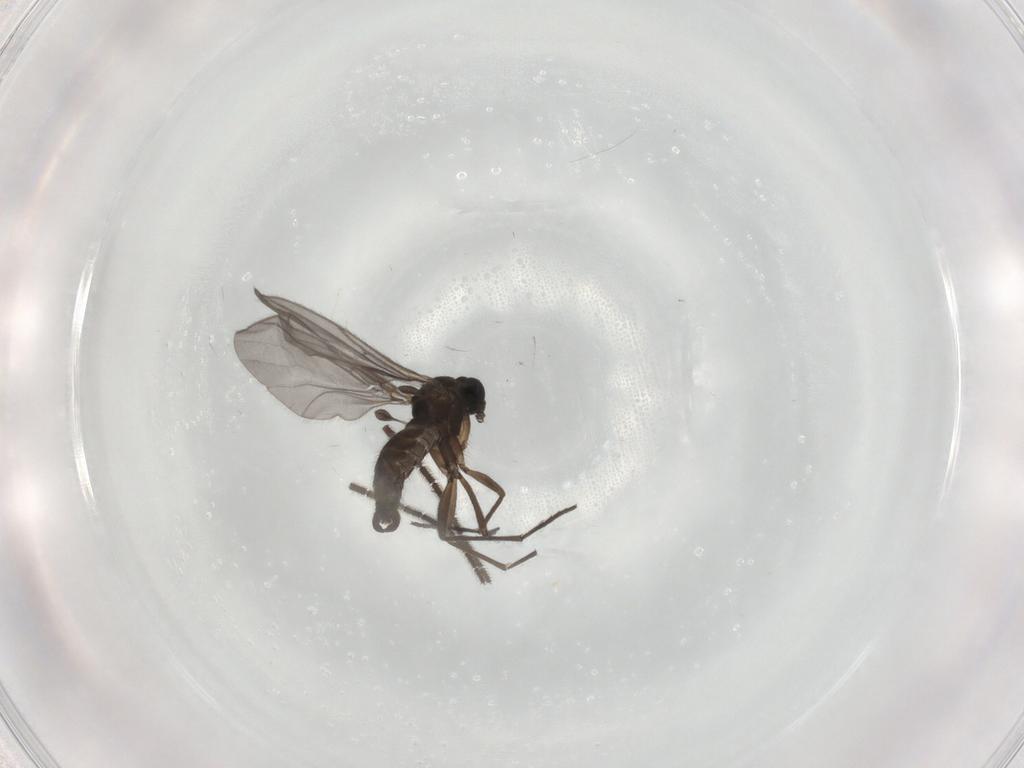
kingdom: Animalia
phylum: Arthropoda
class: Insecta
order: Diptera
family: Sciaridae
